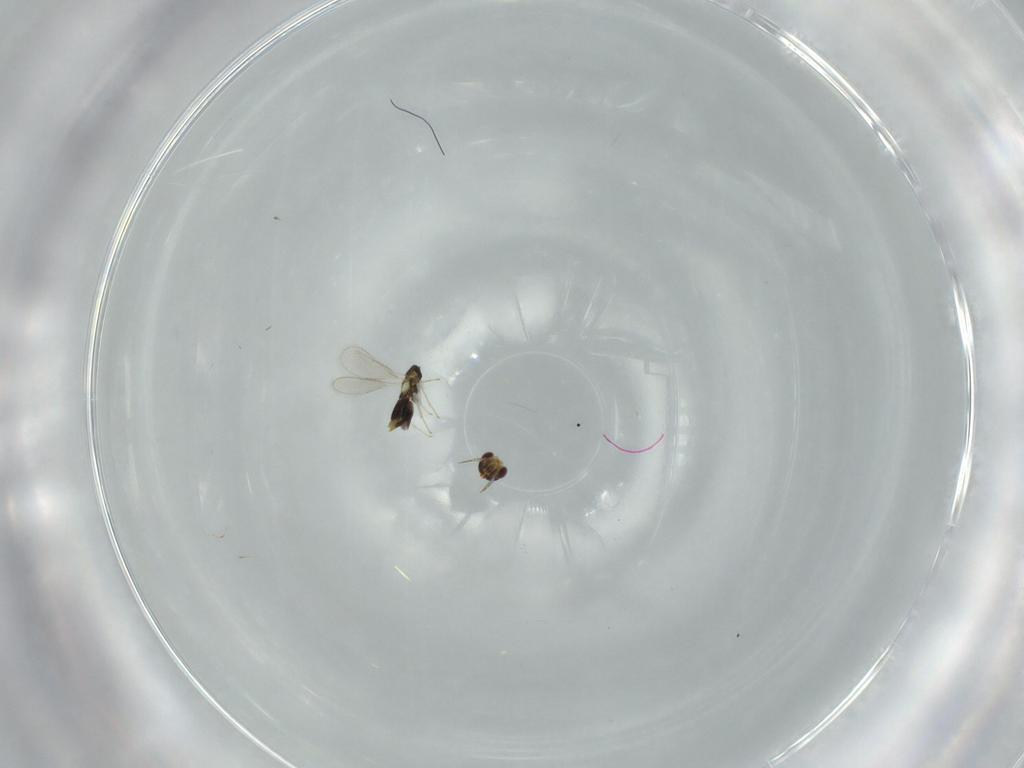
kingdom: Animalia
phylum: Arthropoda
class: Insecta
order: Hymenoptera
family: Aphelinidae
